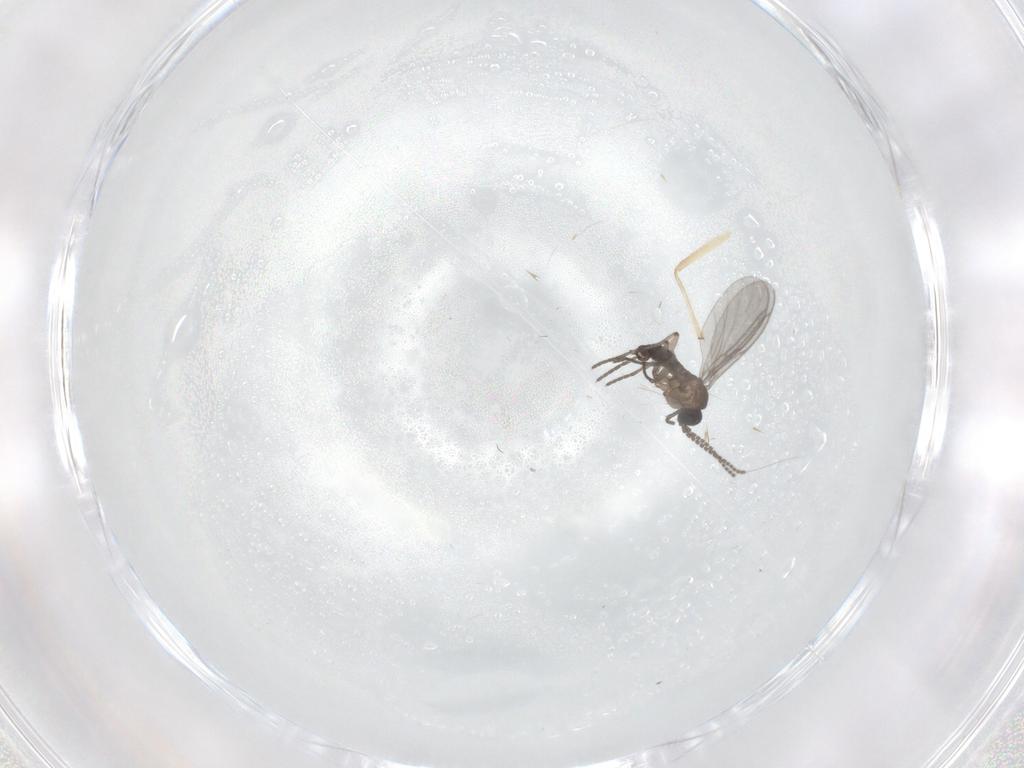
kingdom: Animalia
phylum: Arthropoda
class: Insecta
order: Diptera
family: Chironomidae
